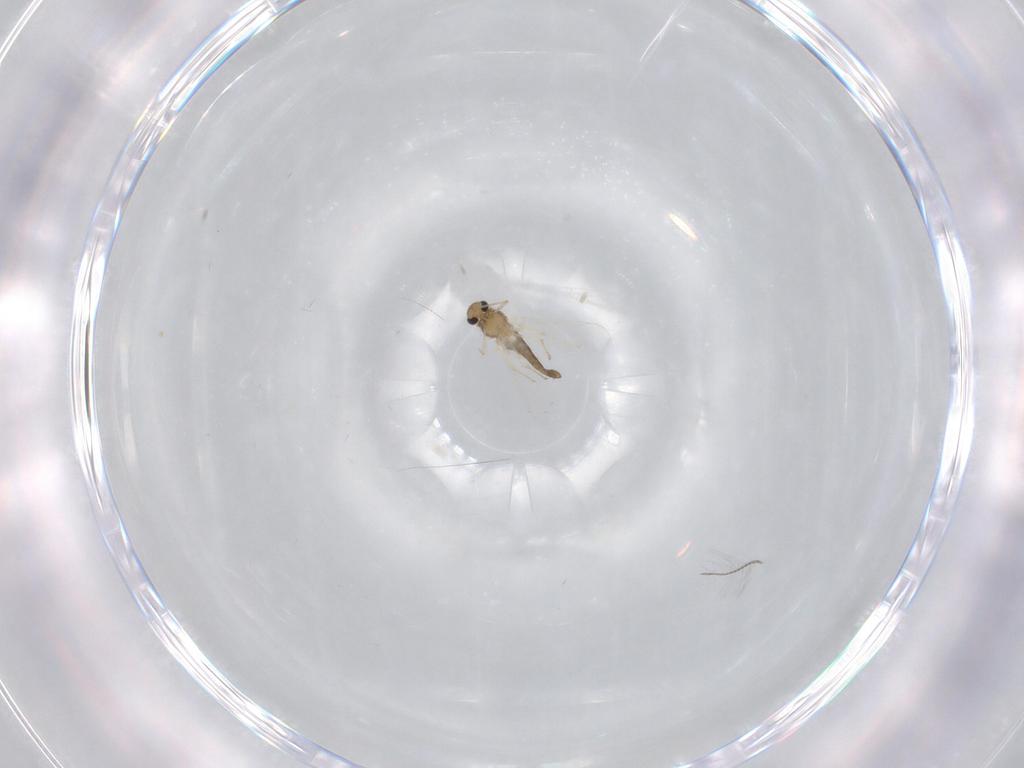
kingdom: Animalia
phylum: Arthropoda
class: Insecta
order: Diptera
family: Chironomidae
